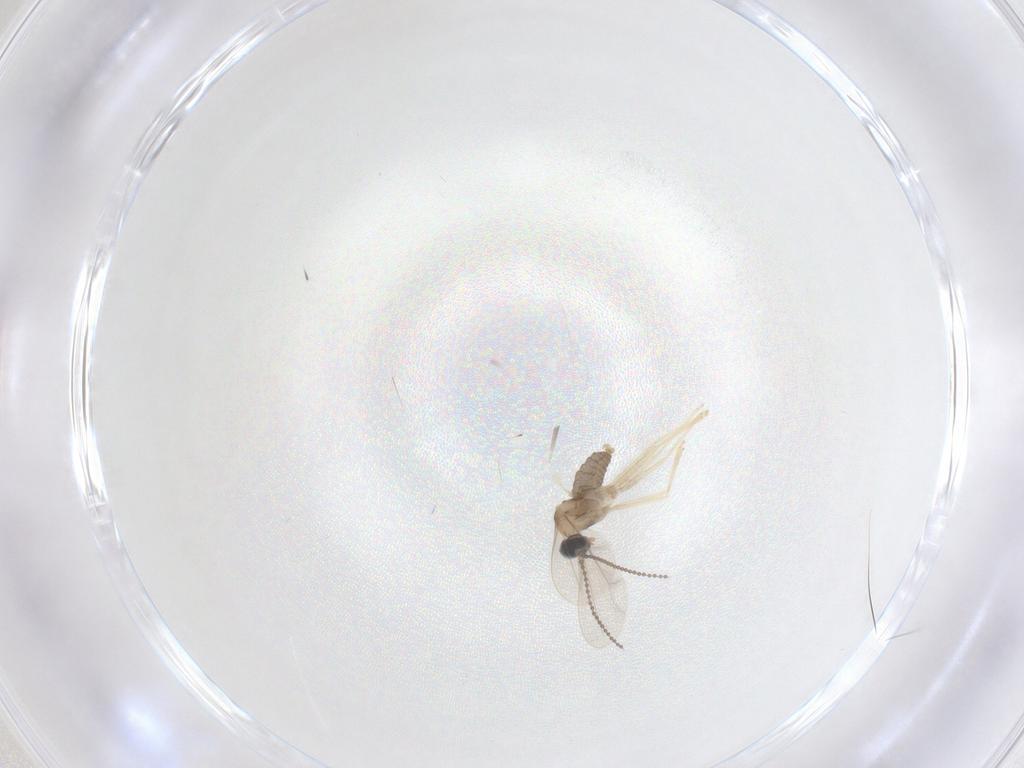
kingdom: Animalia
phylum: Arthropoda
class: Insecta
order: Diptera
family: Cecidomyiidae
